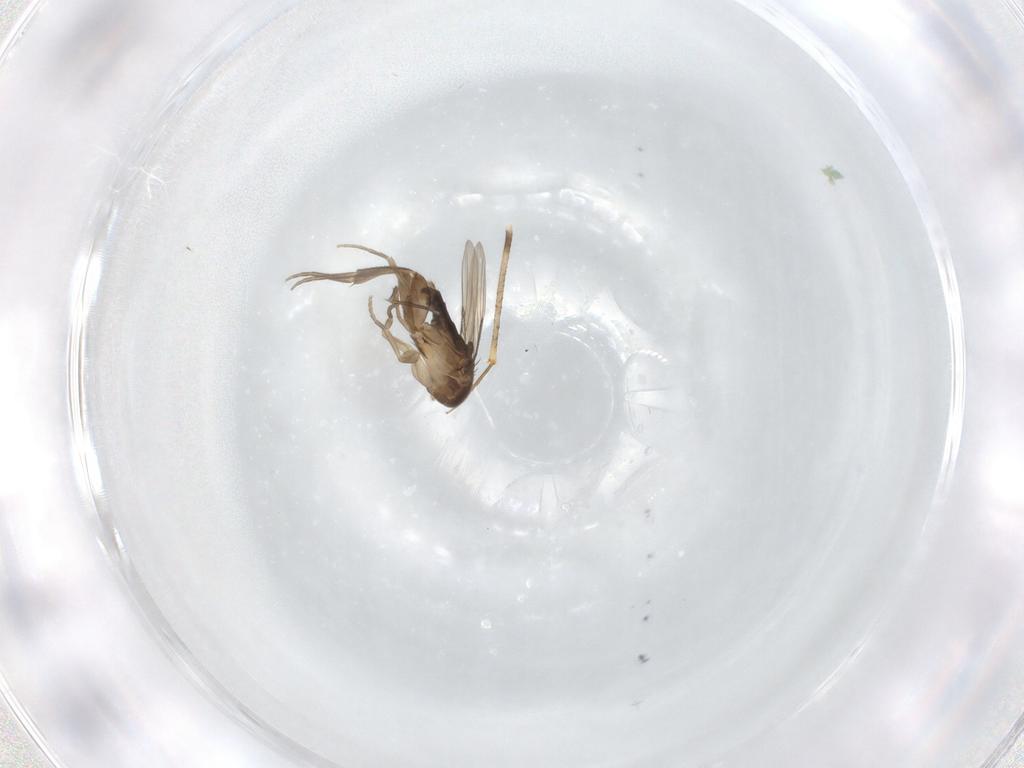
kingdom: Animalia
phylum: Arthropoda
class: Insecta
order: Diptera
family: Phoridae
